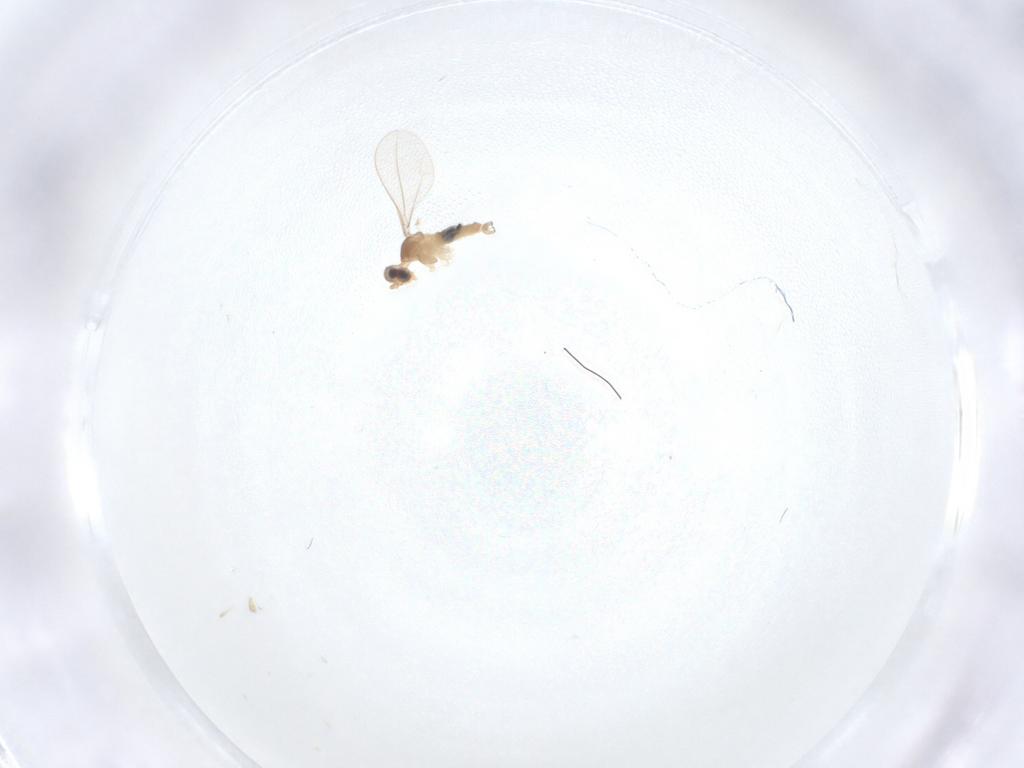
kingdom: Animalia
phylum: Arthropoda
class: Insecta
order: Diptera
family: Cecidomyiidae
